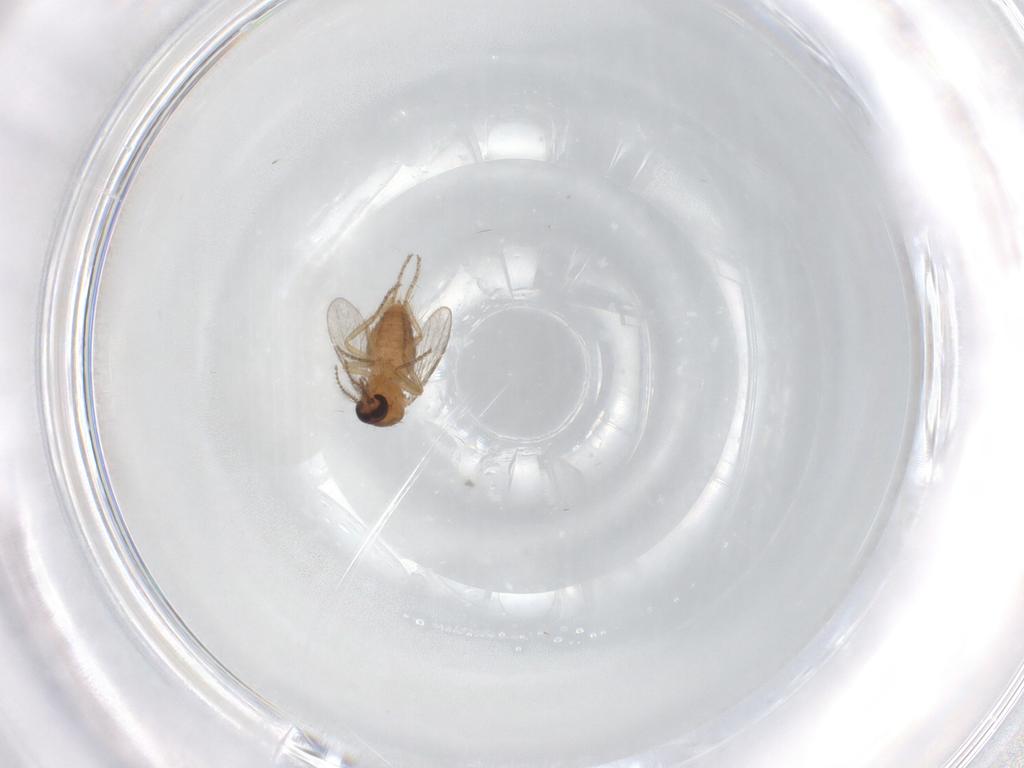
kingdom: Animalia
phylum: Arthropoda
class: Insecta
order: Diptera
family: Ceratopogonidae
